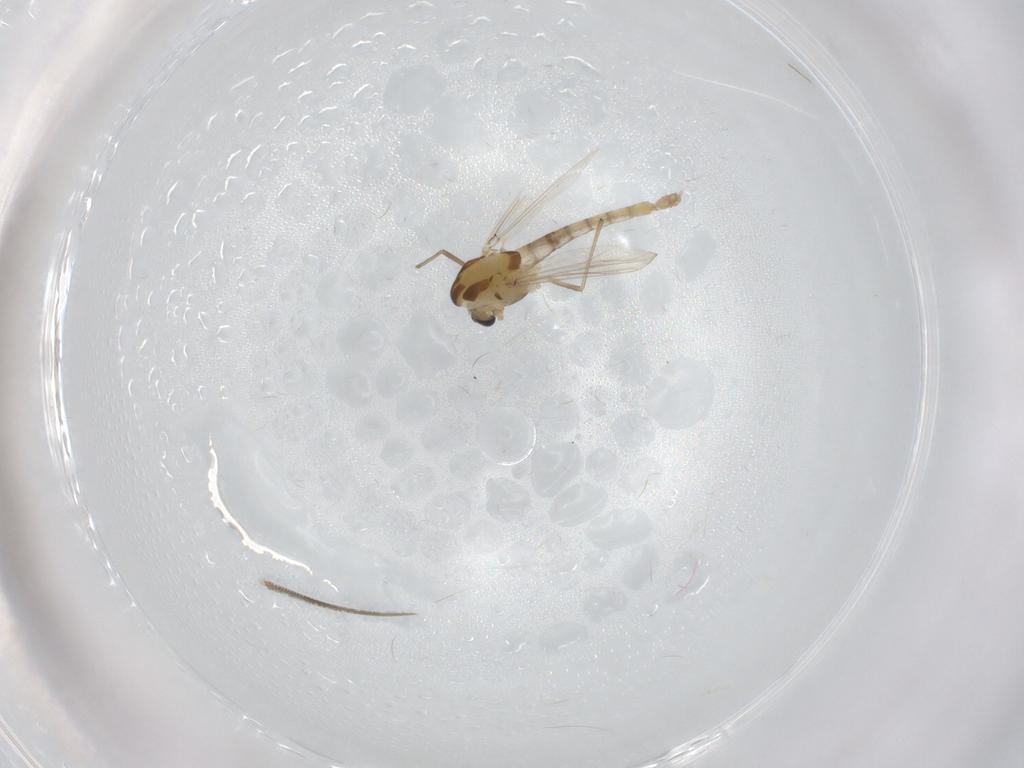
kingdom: Animalia
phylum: Arthropoda
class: Insecta
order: Diptera
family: Chironomidae
